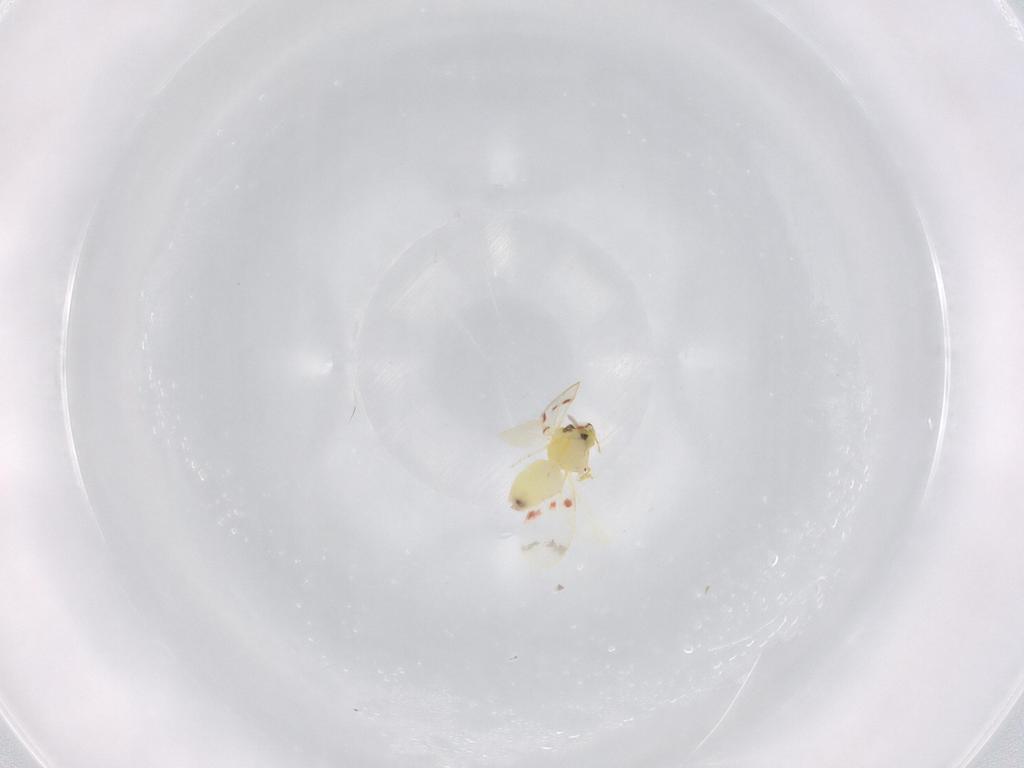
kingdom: Animalia
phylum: Arthropoda
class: Insecta
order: Hemiptera
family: Aleyrodidae
